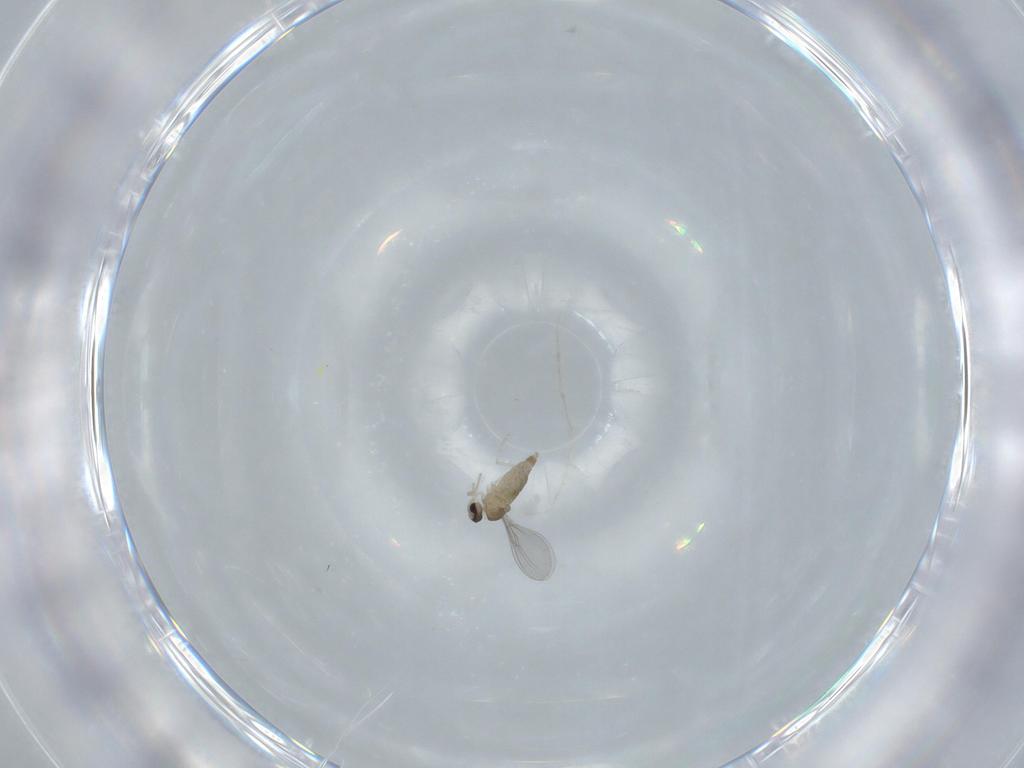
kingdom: Animalia
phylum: Arthropoda
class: Insecta
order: Diptera
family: Cecidomyiidae
